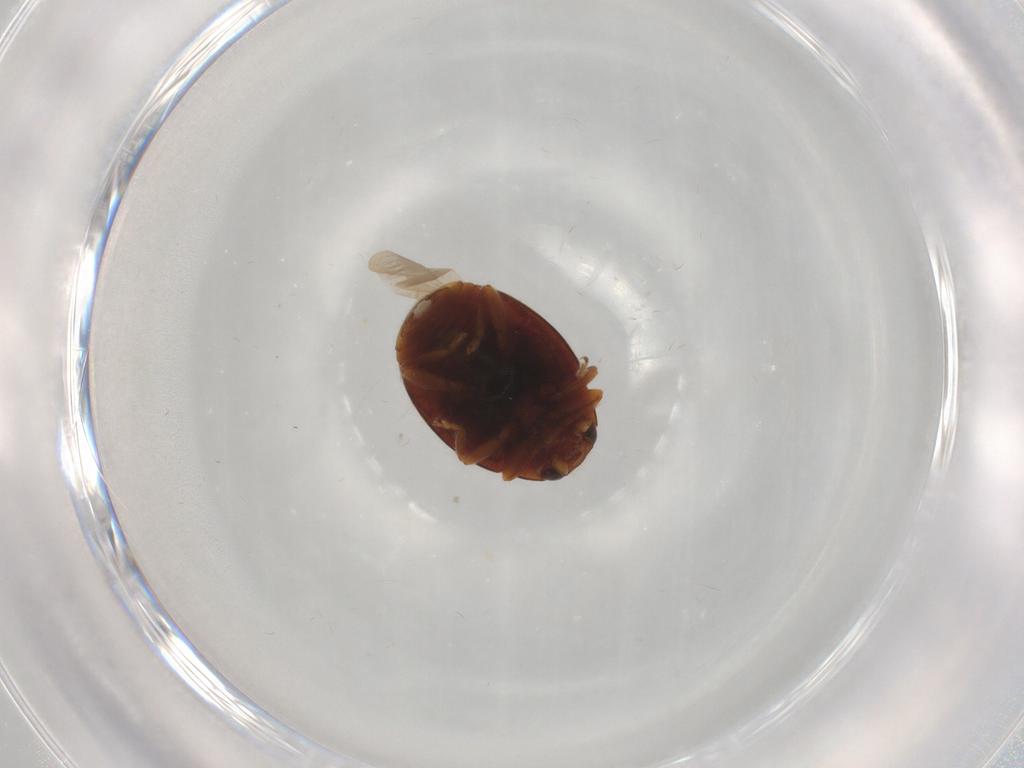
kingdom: Animalia
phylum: Arthropoda
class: Insecta
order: Coleoptera
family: Coccinellidae
